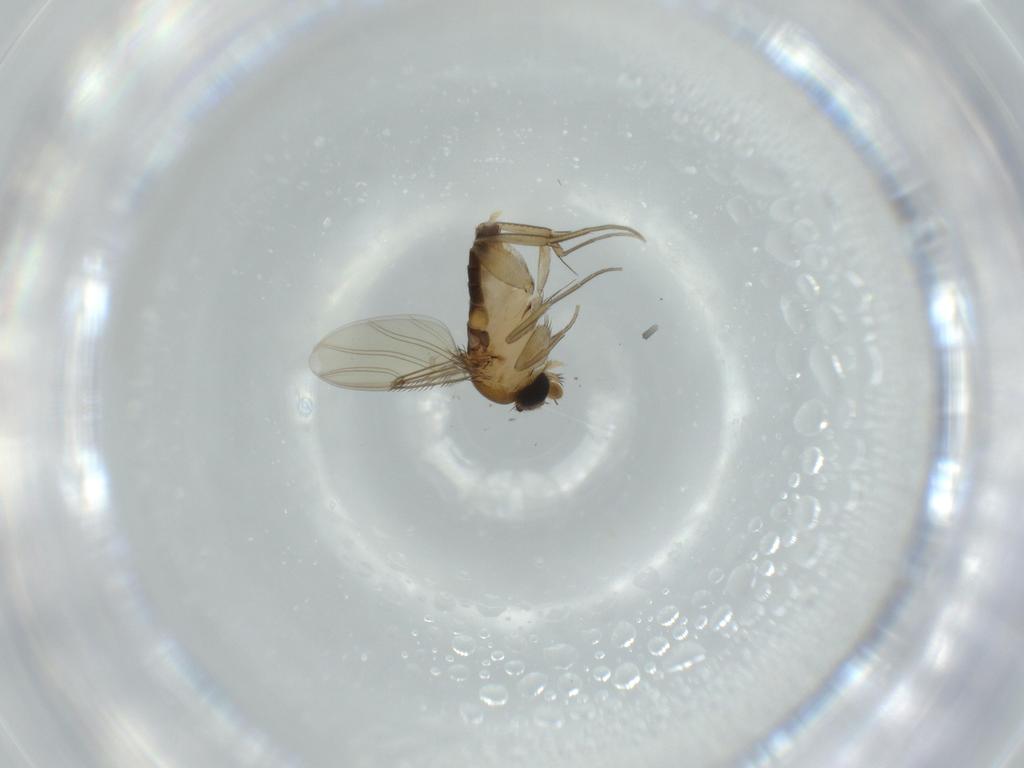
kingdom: Animalia
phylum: Arthropoda
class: Insecta
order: Diptera
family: Phoridae
